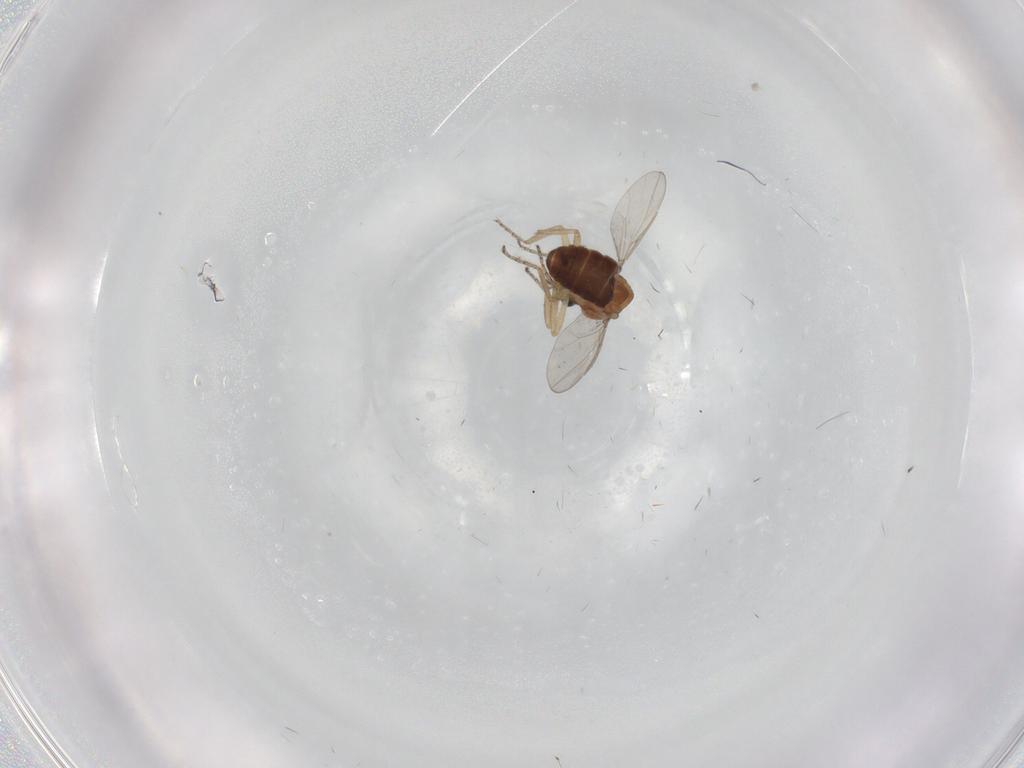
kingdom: Animalia
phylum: Arthropoda
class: Insecta
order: Diptera
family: Ceratopogonidae
